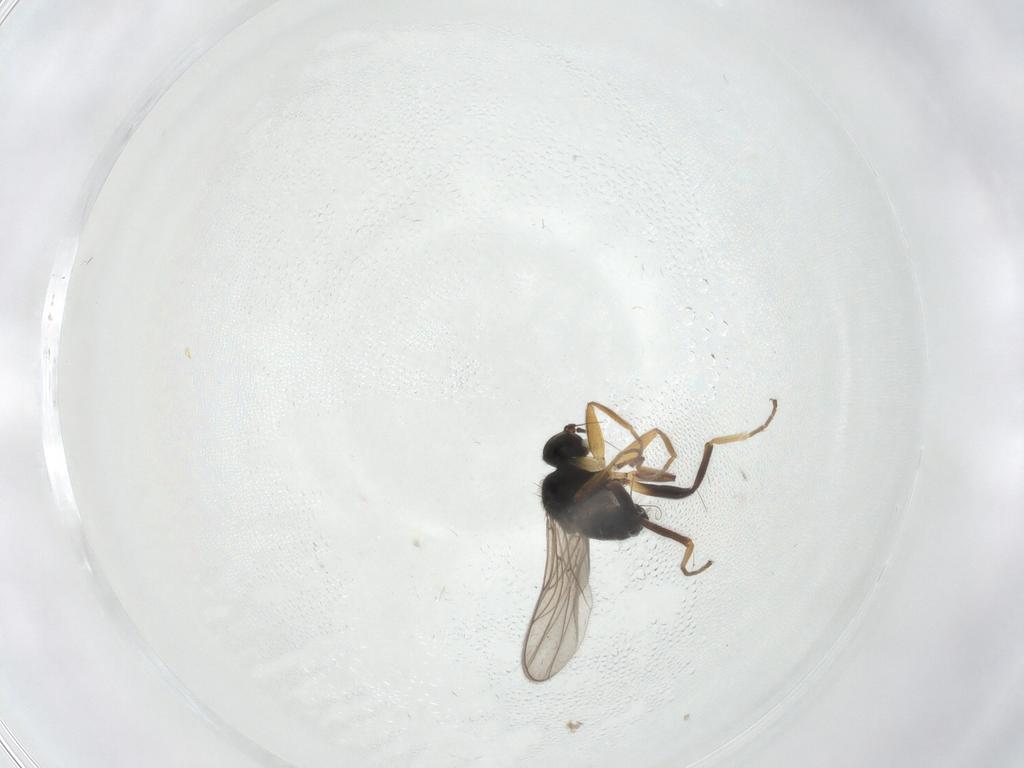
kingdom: Animalia
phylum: Arthropoda
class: Insecta
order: Diptera
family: Hybotidae
